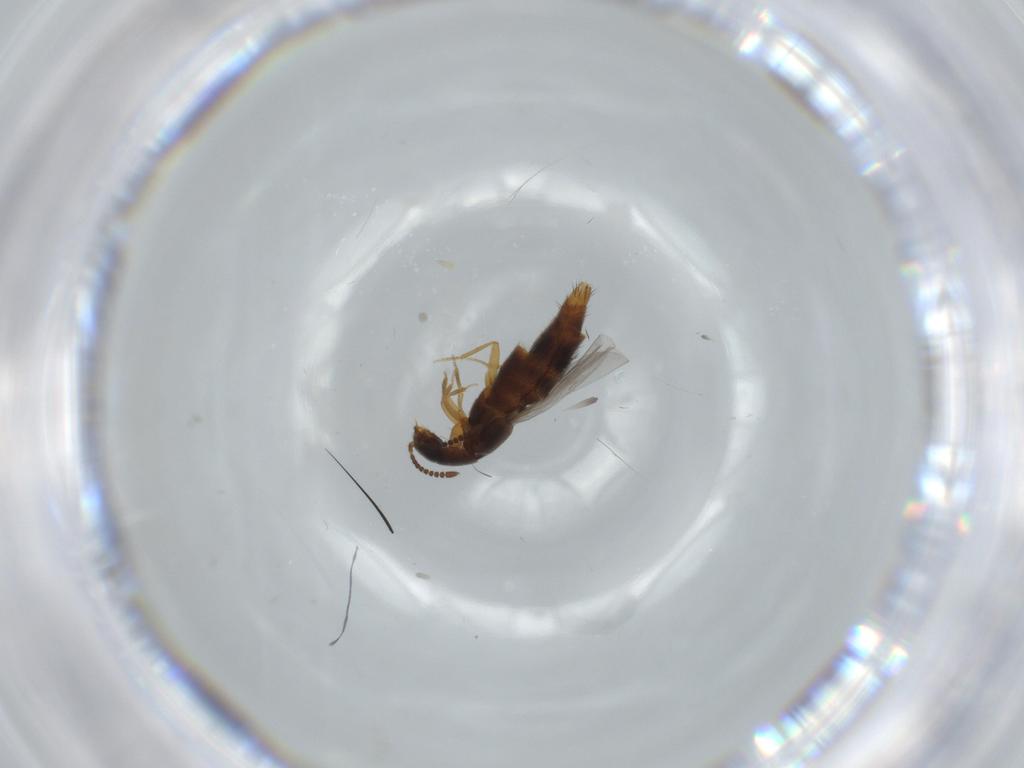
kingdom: Animalia
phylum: Arthropoda
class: Insecta
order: Coleoptera
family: Staphylinidae
